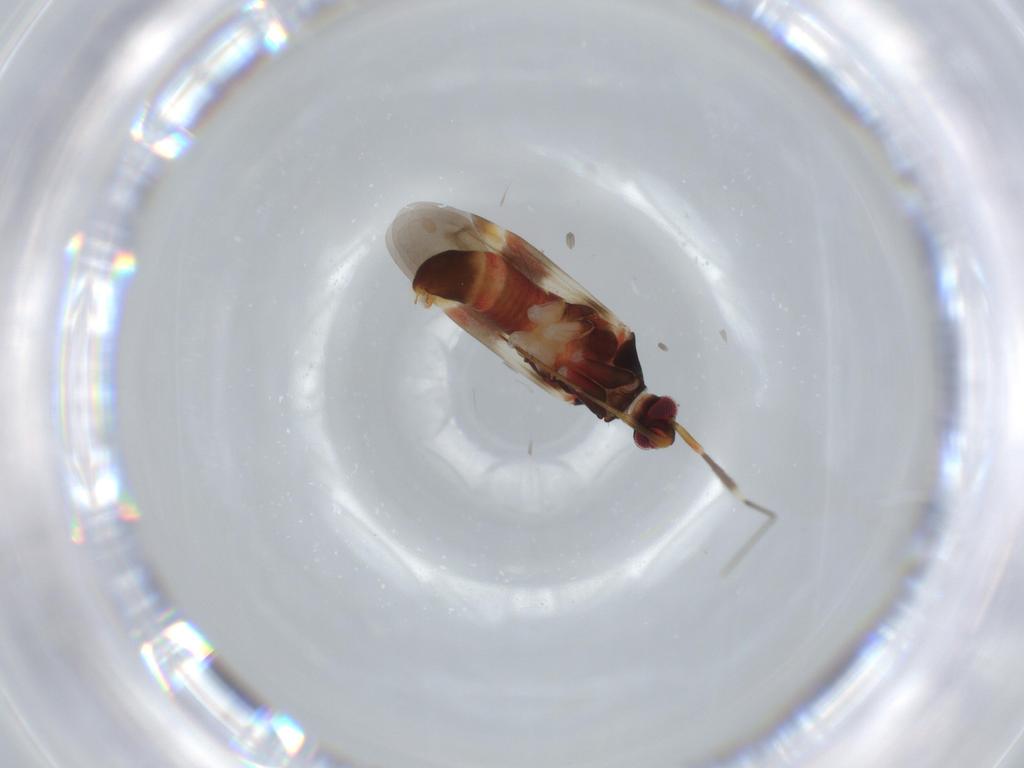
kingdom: Animalia
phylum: Arthropoda
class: Insecta
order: Hemiptera
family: Miridae
